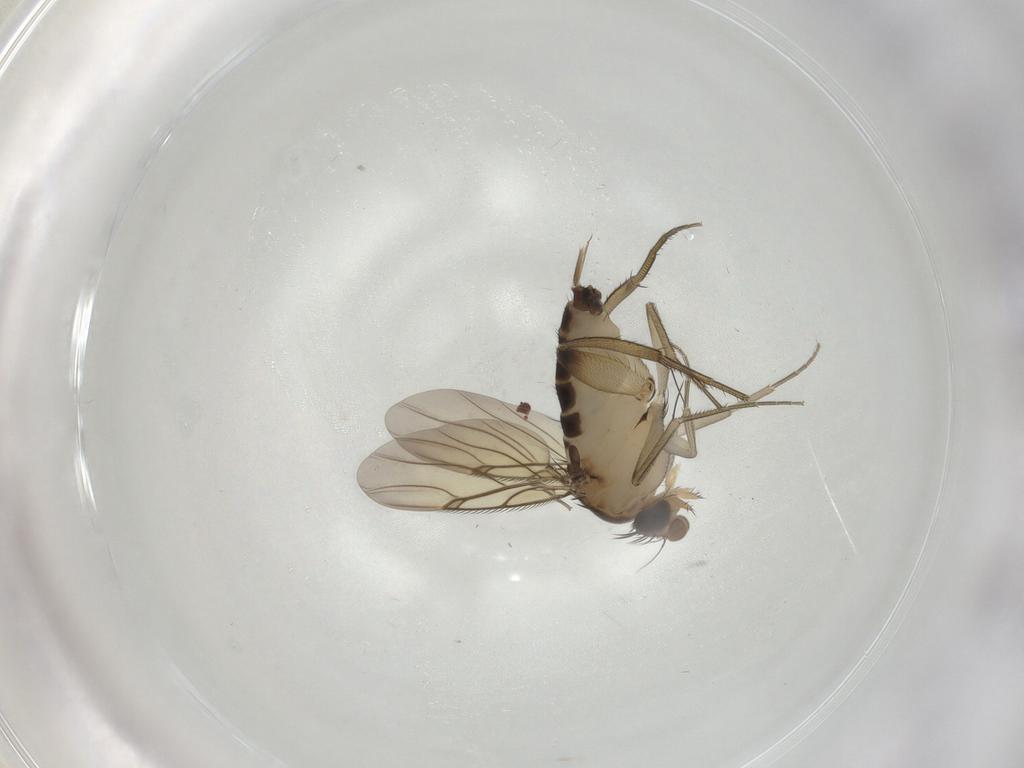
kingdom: Animalia
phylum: Arthropoda
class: Insecta
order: Diptera
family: Phoridae
